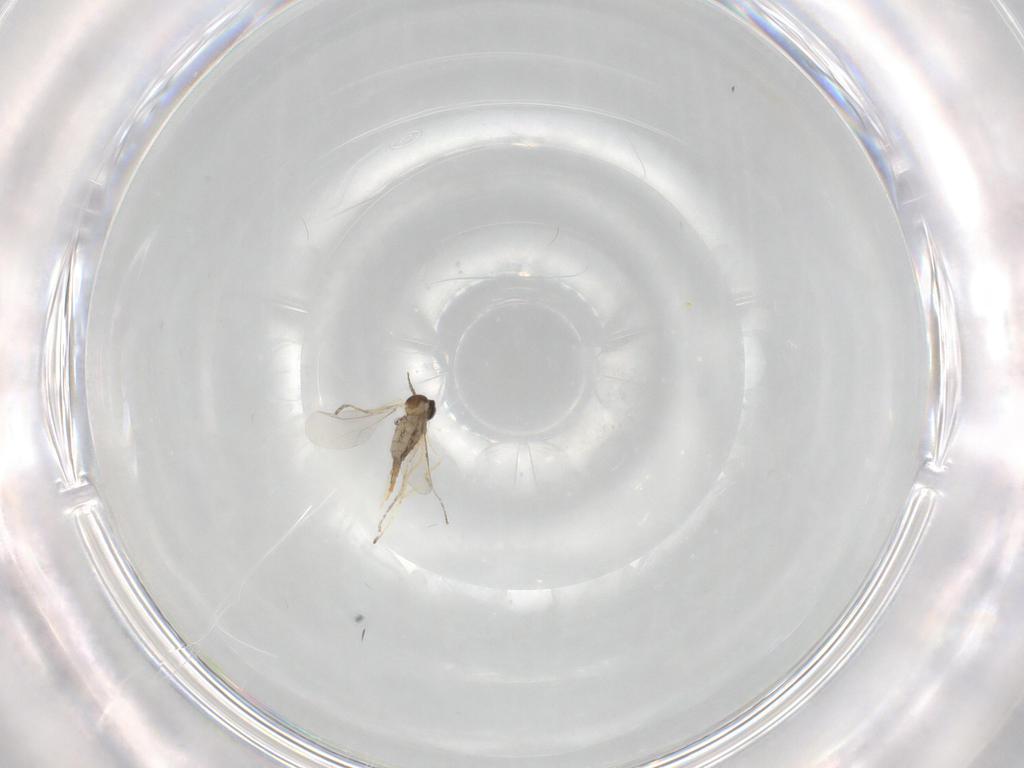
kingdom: Animalia
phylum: Arthropoda
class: Insecta
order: Diptera
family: Cecidomyiidae
